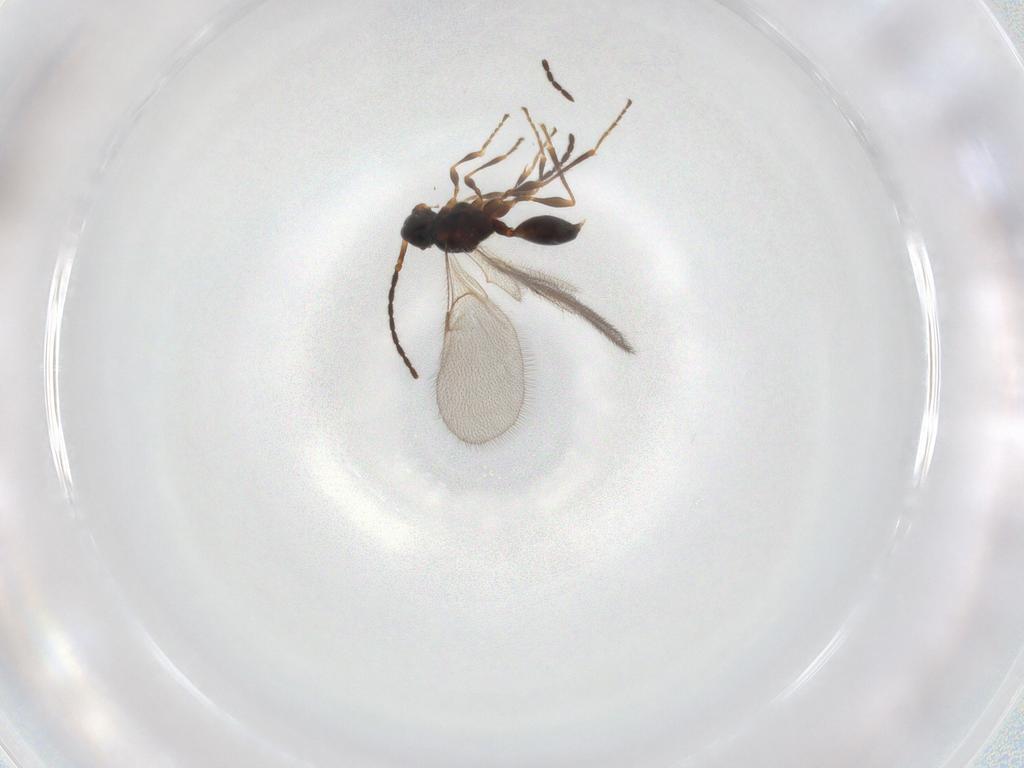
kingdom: Animalia
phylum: Arthropoda
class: Insecta
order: Hymenoptera
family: Diapriidae
